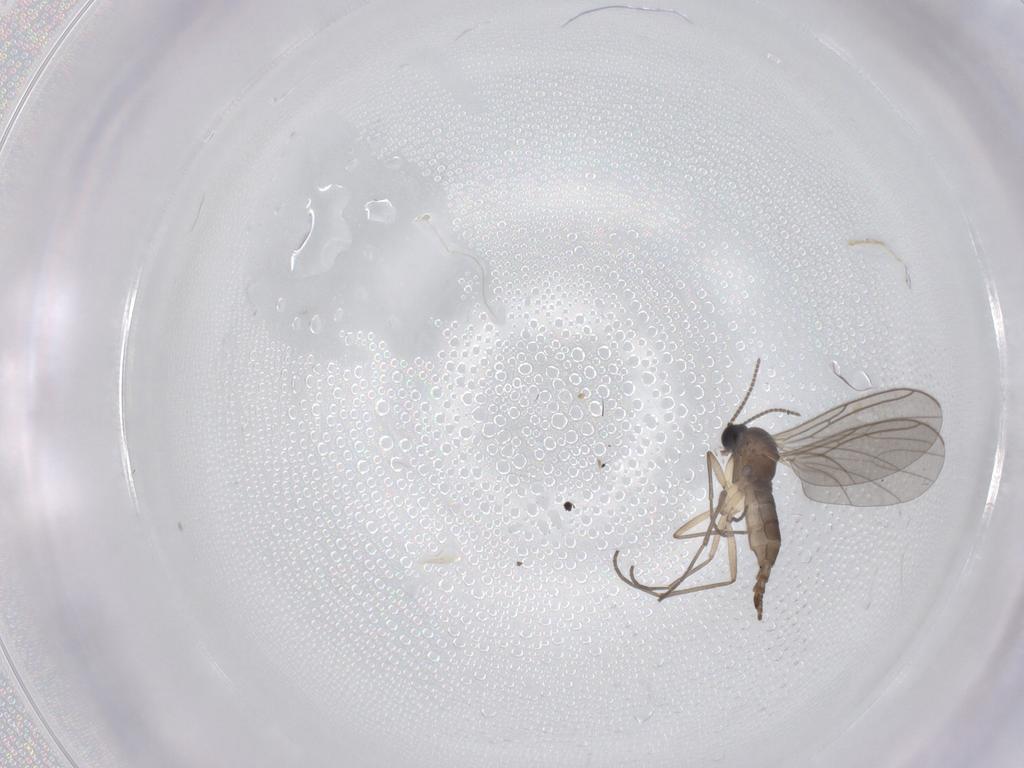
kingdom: Animalia
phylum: Arthropoda
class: Insecta
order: Diptera
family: Sciaridae
